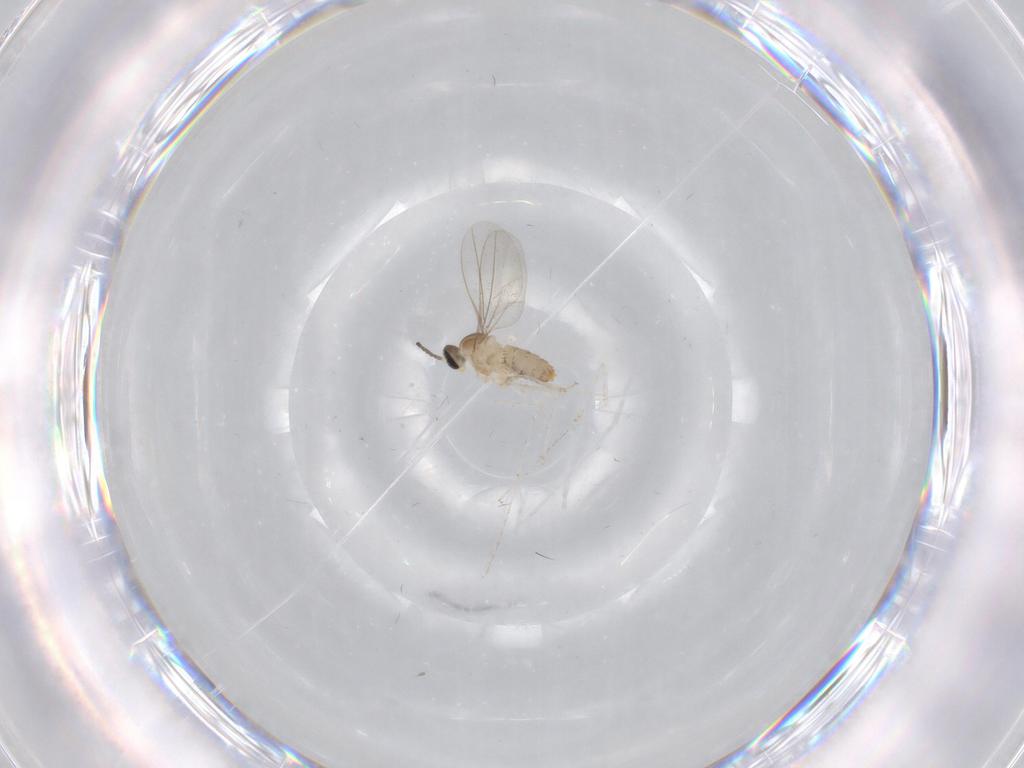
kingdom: Animalia
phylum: Arthropoda
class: Insecta
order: Diptera
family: Cecidomyiidae
